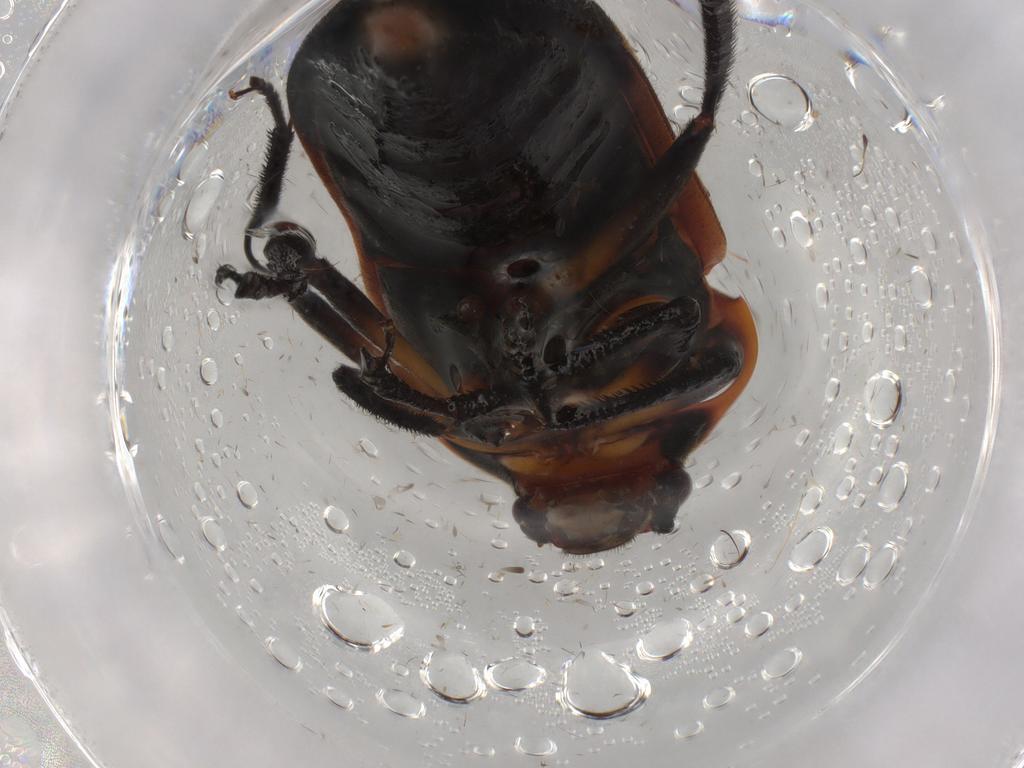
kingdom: Animalia
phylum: Arthropoda
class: Insecta
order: Coleoptera
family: Ptilodactylidae
